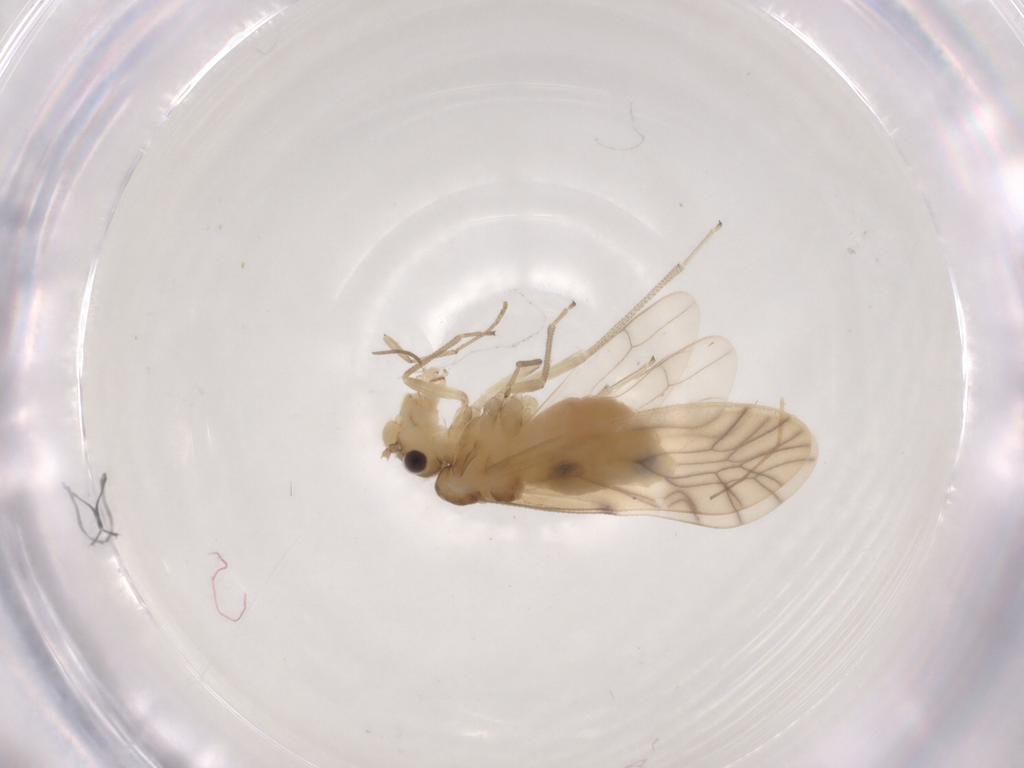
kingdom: Animalia
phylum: Arthropoda
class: Insecta
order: Psocodea
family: Caeciliusidae
